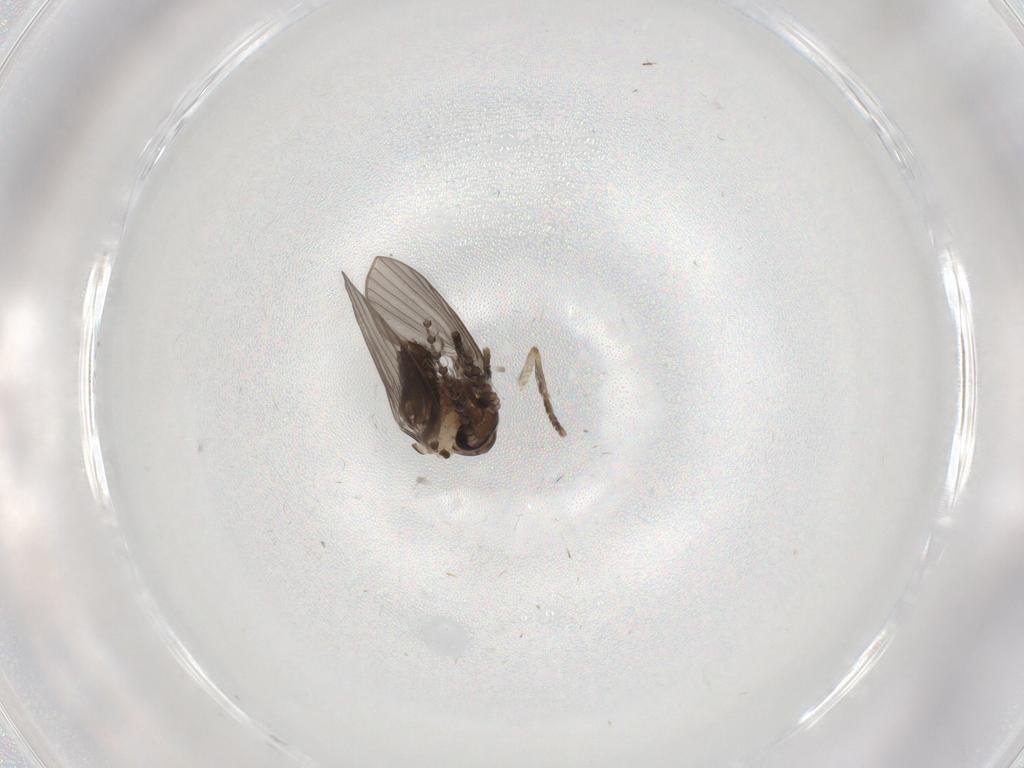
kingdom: Animalia
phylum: Arthropoda
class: Insecta
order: Diptera
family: Psychodidae
